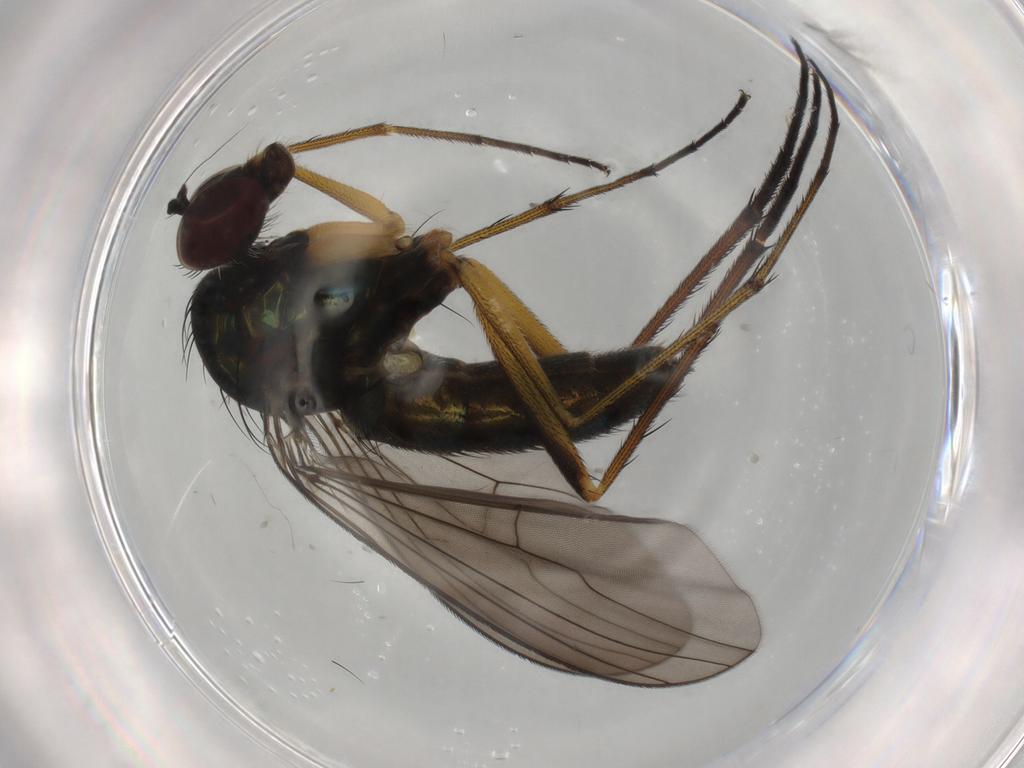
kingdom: Animalia
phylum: Arthropoda
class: Insecta
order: Diptera
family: Dolichopodidae
